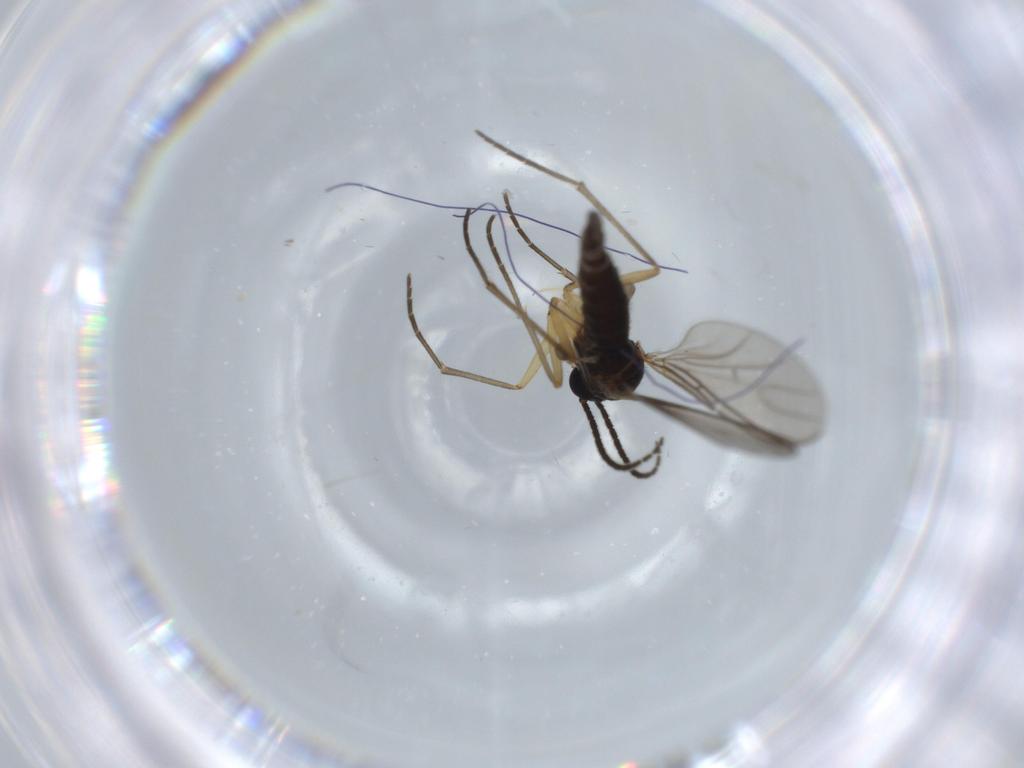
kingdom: Animalia
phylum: Arthropoda
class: Insecta
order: Diptera
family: Sciaridae
